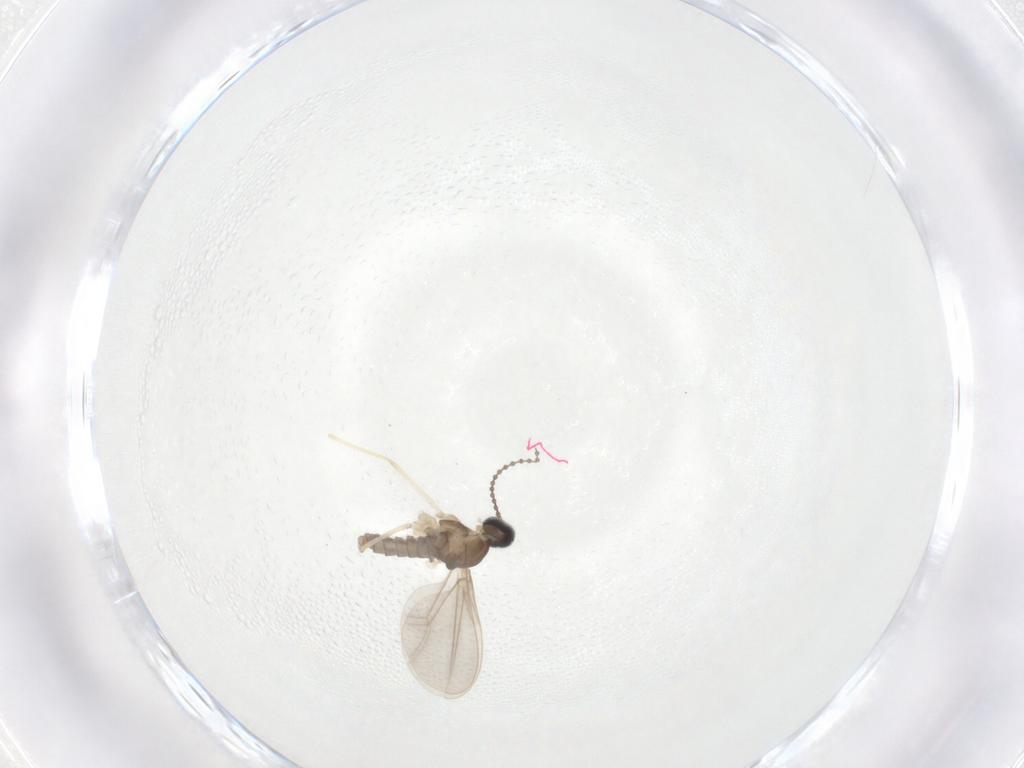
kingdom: Animalia
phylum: Arthropoda
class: Insecta
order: Diptera
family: Cecidomyiidae
